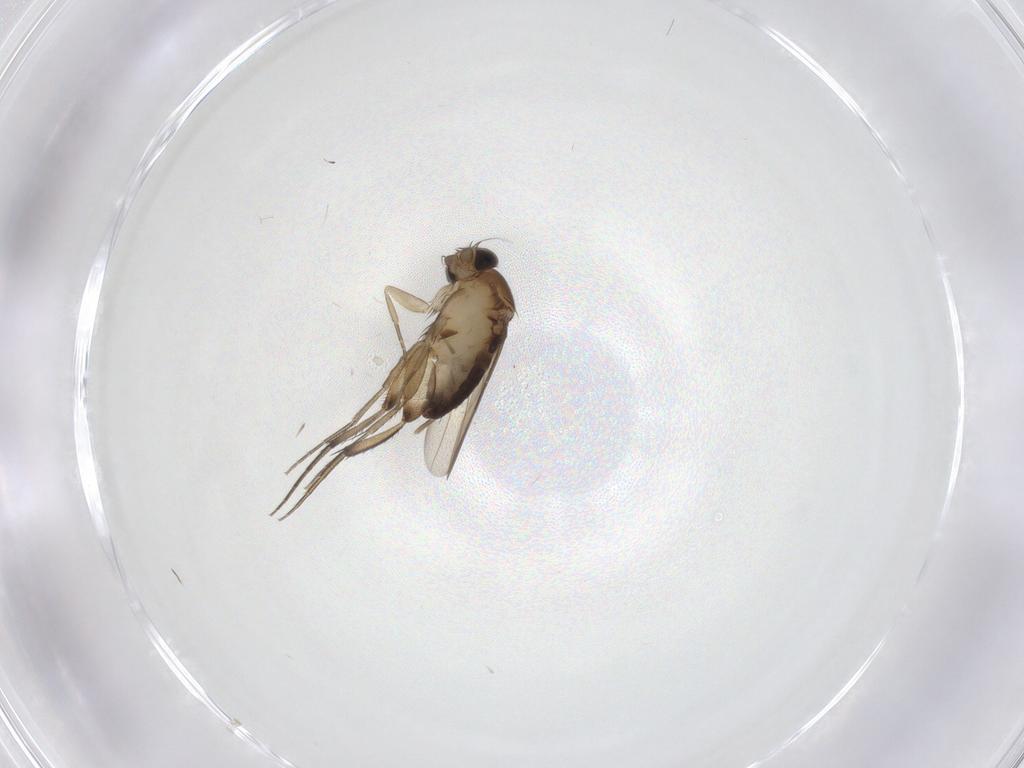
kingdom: Animalia
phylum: Arthropoda
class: Insecta
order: Diptera
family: Phoridae
